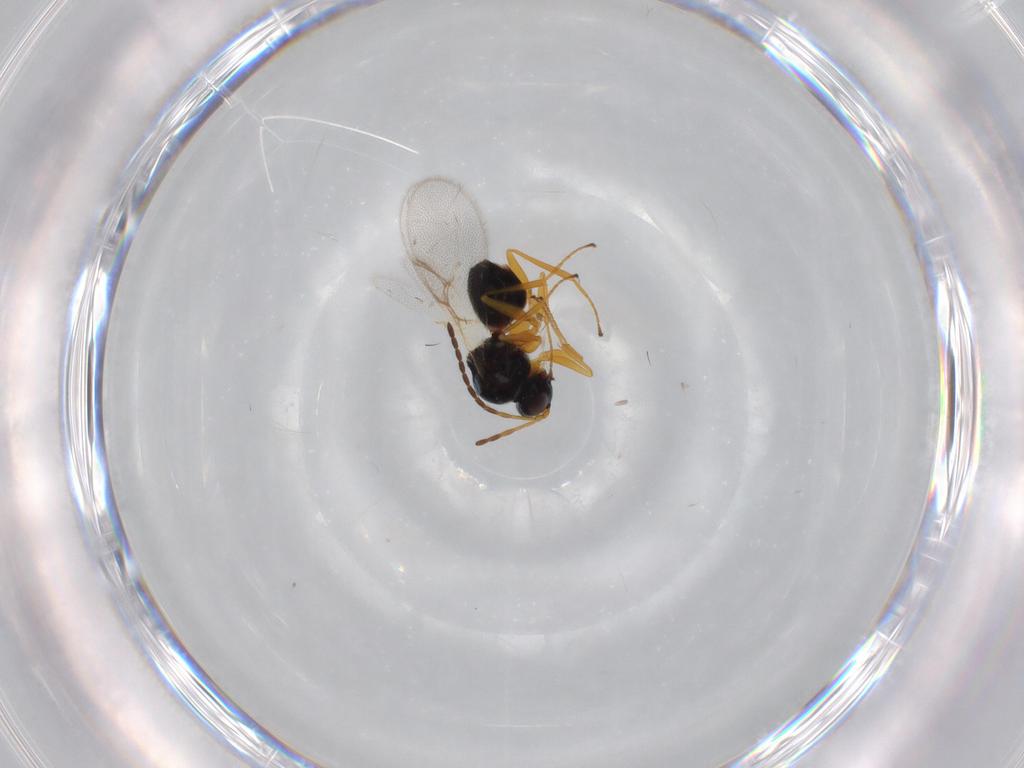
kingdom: Animalia
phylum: Arthropoda
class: Insecta
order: Hymenoptera
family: Figitidae
